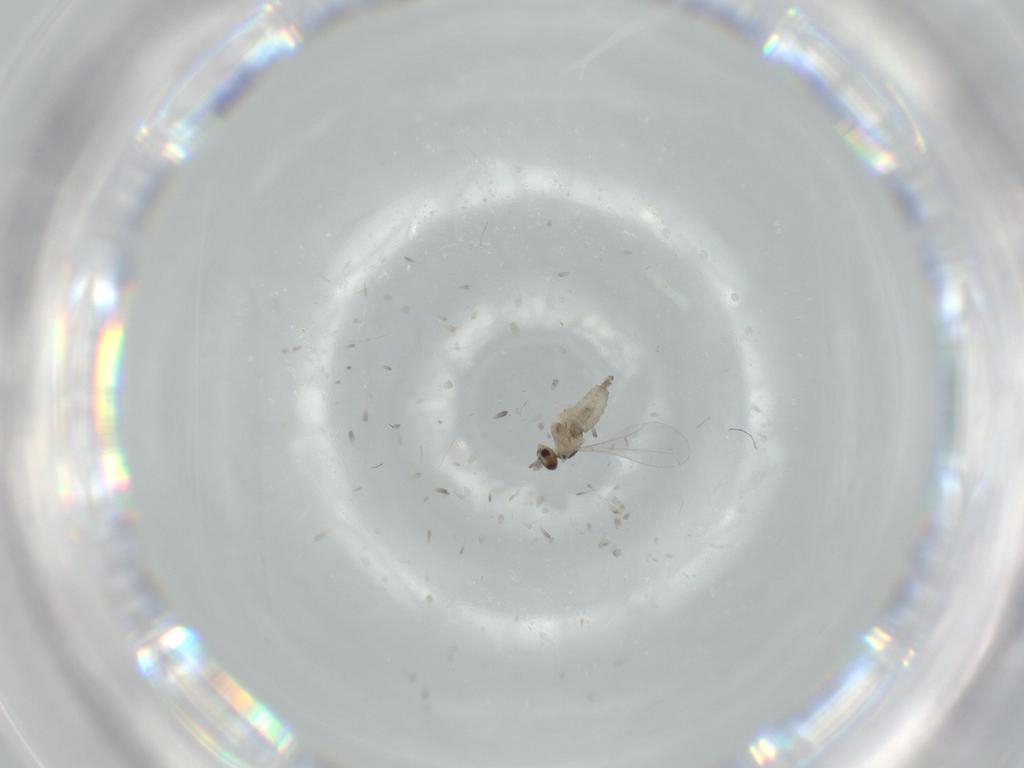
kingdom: Animalia
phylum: Arthropoda
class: Insecta
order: Diptera
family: Cecidomyiidae
